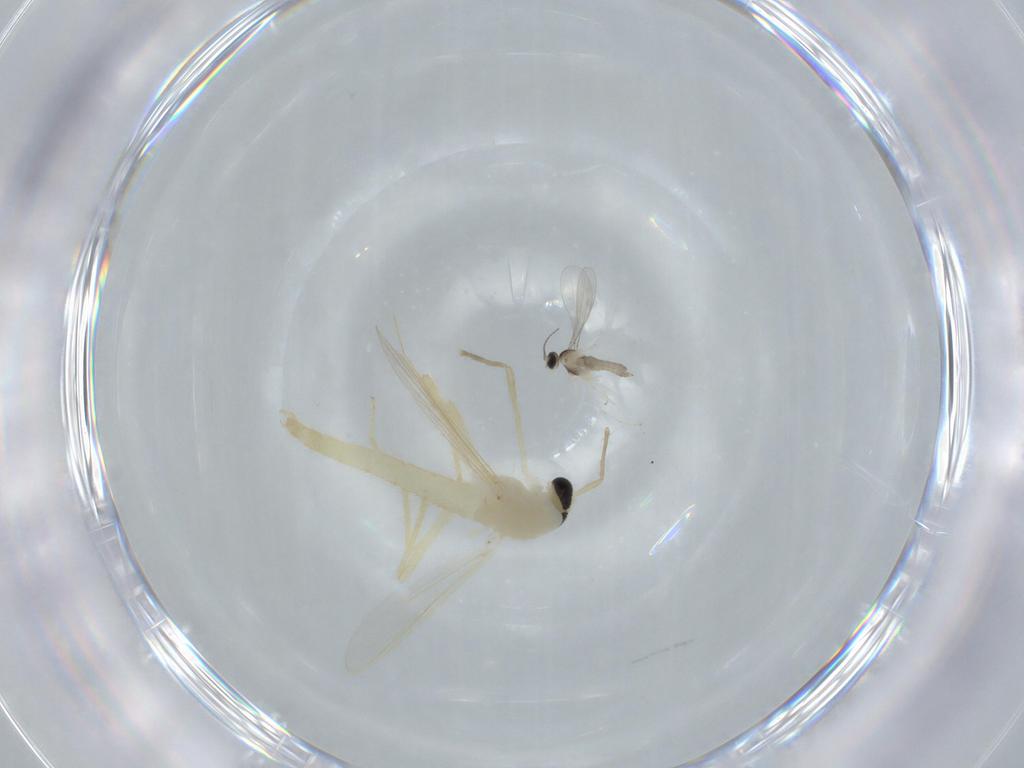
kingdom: Animalia
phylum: Arthropoda
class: Insecta
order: Diptera
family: Chironomidae
